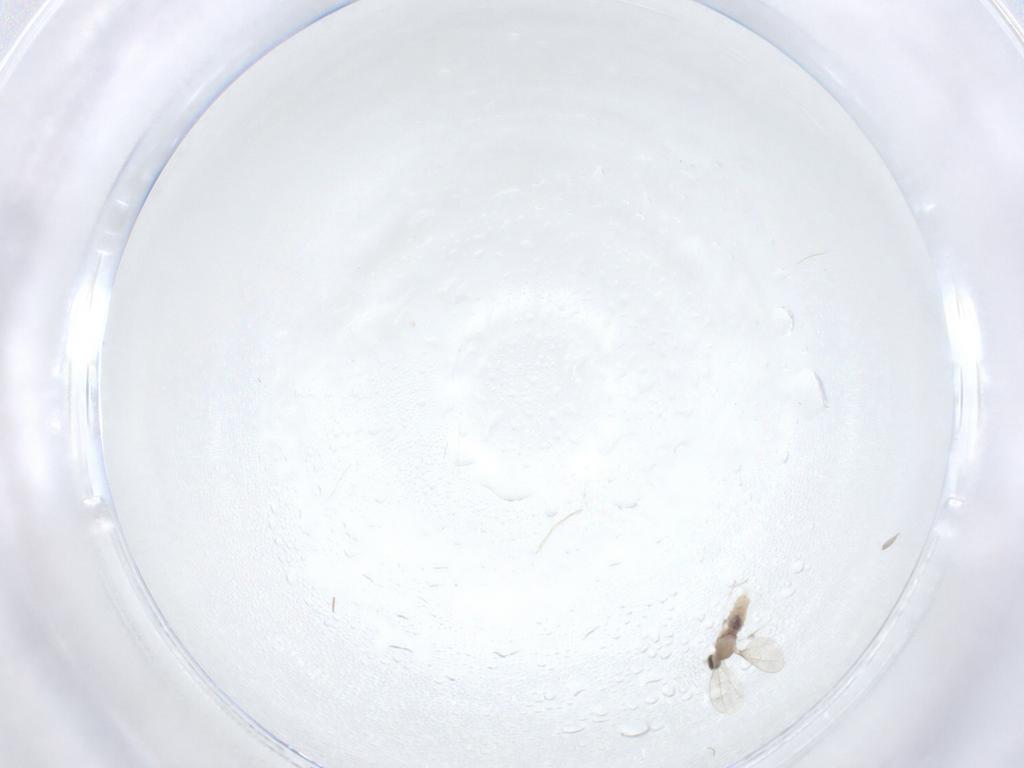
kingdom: Animalia
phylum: Arthropoda
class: Insecta
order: Diptera
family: Cecidomyiidae
